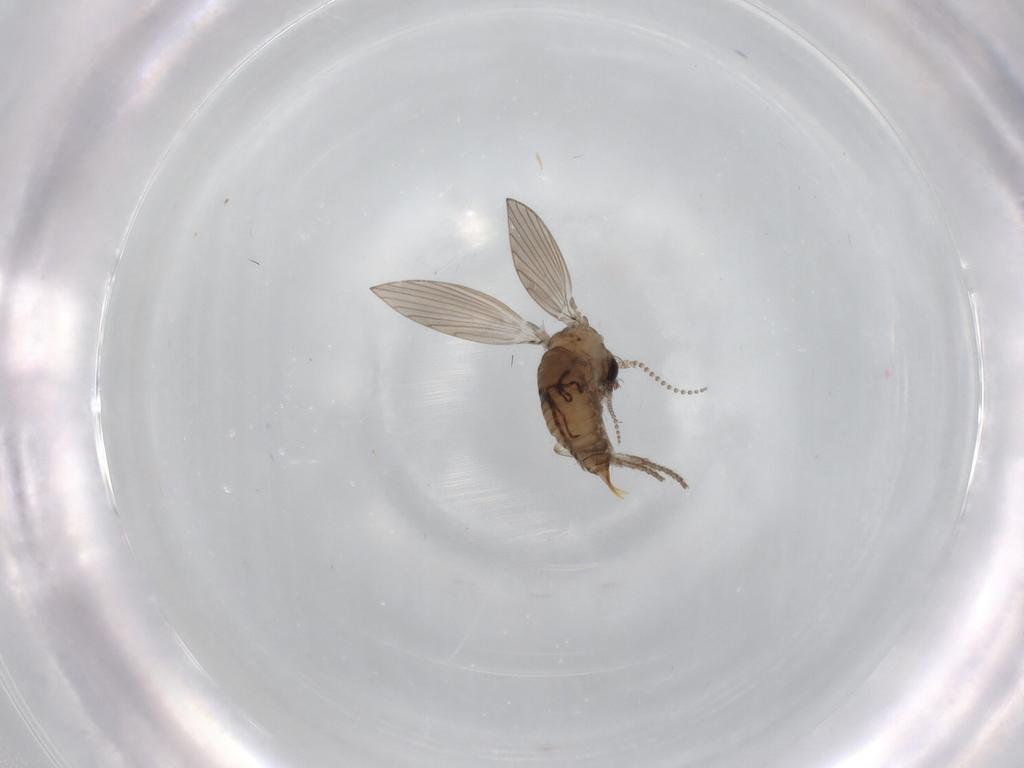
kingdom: Animalia
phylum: Arthropoda
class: Insecta
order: Diptera
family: Psychodidae
